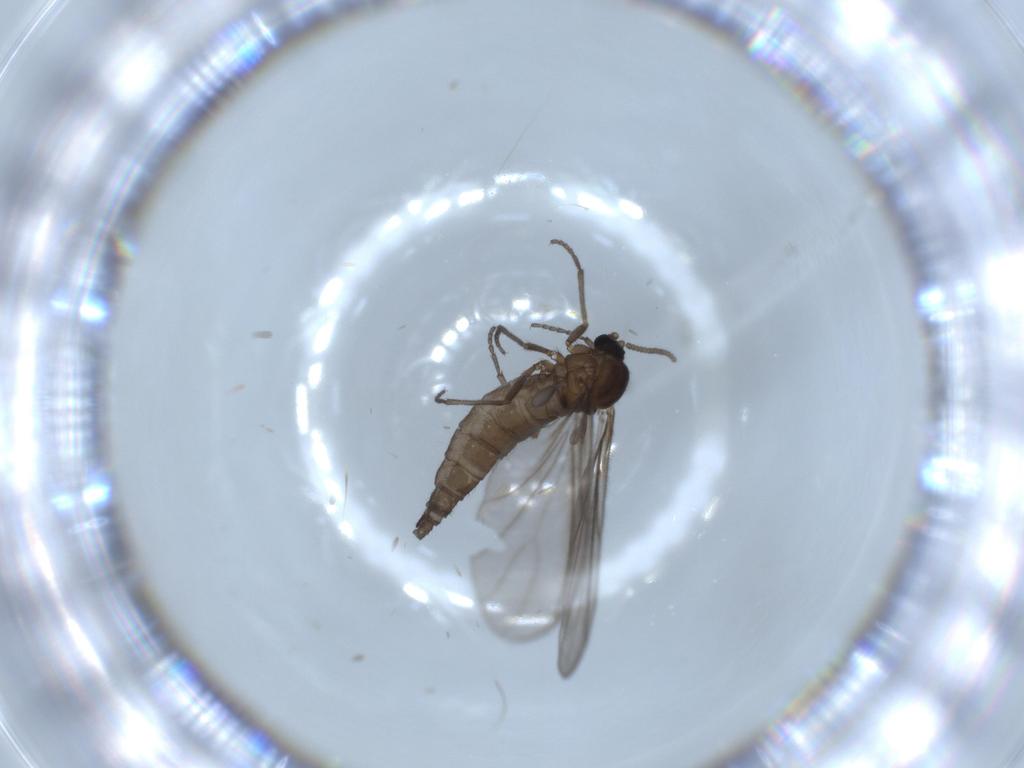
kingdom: Animalia
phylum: Arthropoda
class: Insecta
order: Diptera
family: Sciaridae
